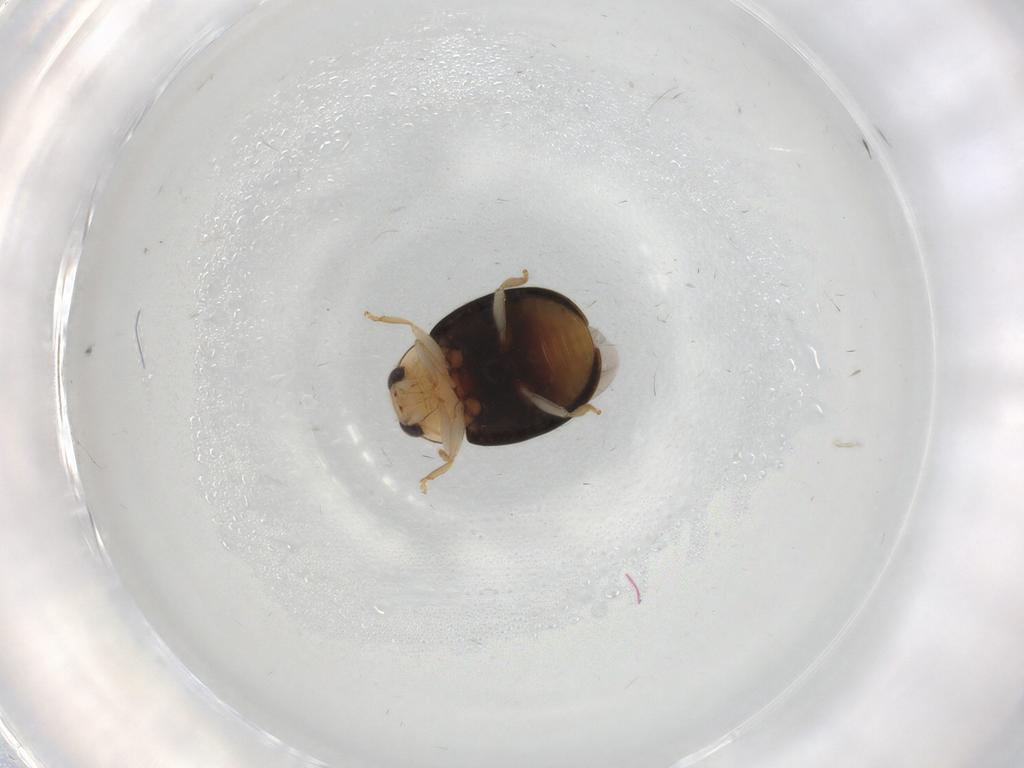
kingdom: Animalia
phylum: Arthropoda
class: Insecta
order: Coleoptera
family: Coccinellidae
